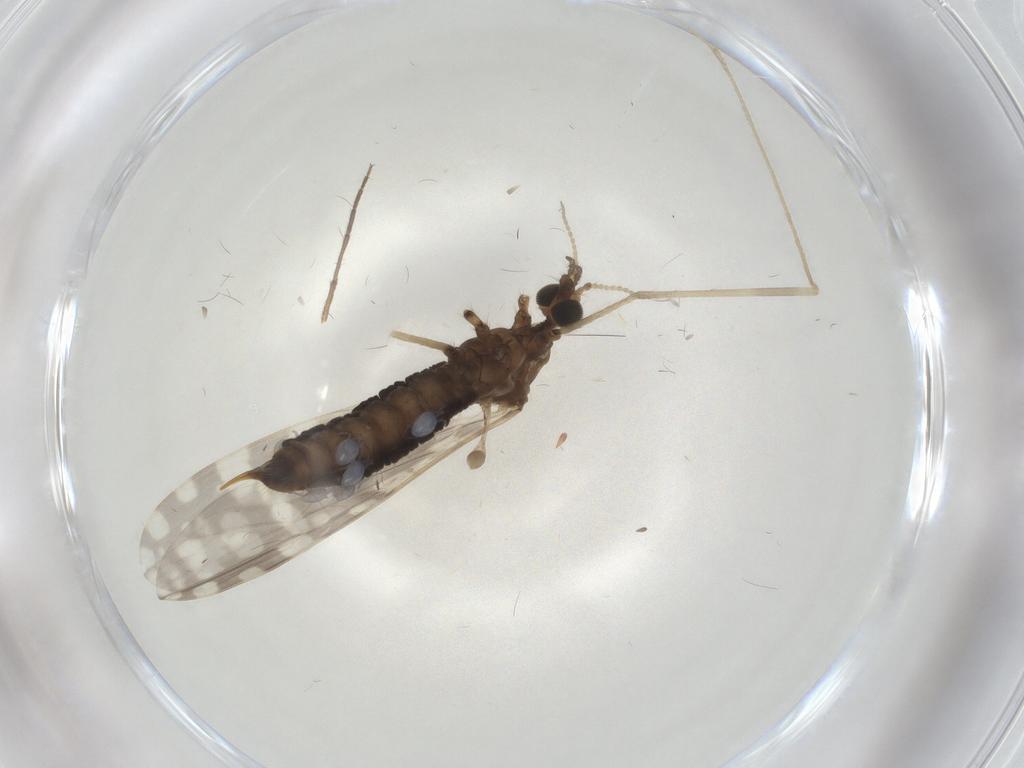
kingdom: Animalia
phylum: Arthropoda
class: Insecta
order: Diptera
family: Limoniidae
